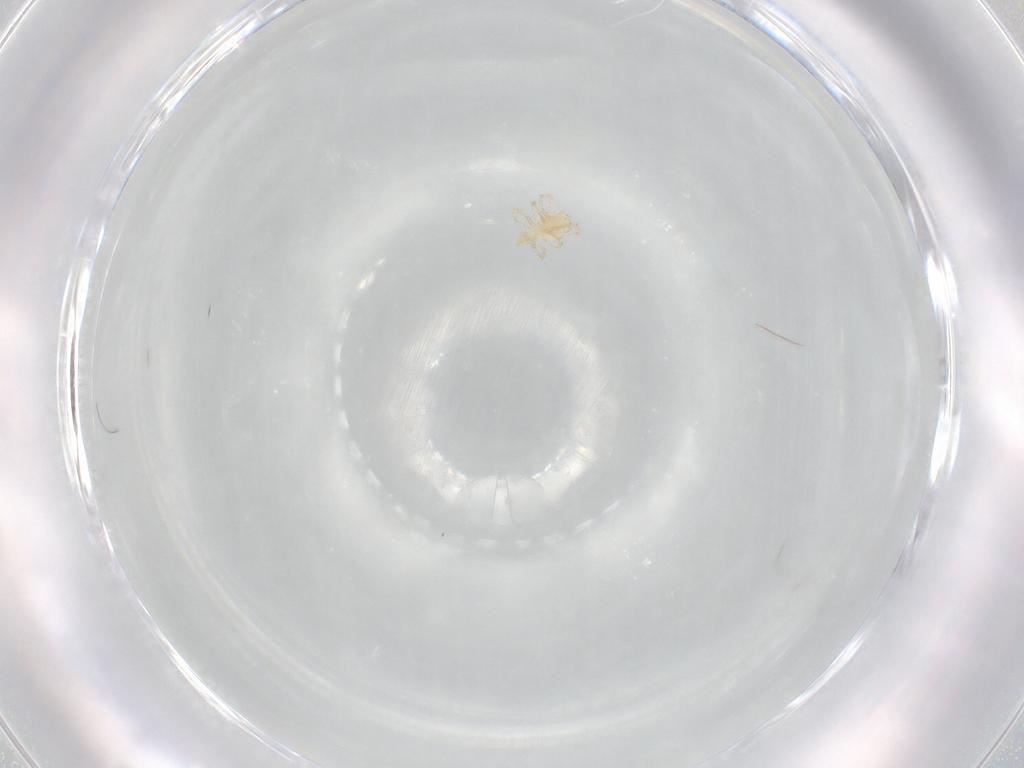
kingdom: Animalia
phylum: Arthropoda
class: Arachnida
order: Trombidiformes
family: Erythraeidae
